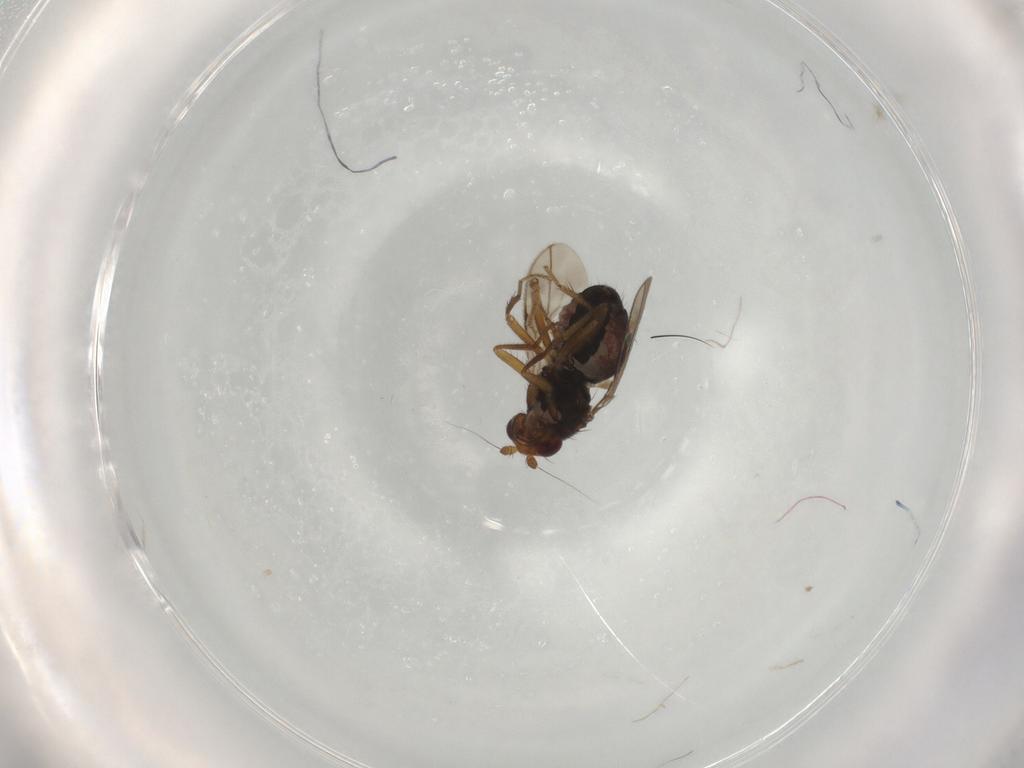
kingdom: Animalia
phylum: Arthropoda
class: Insecta
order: Diptera
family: Sphaeroceridae
